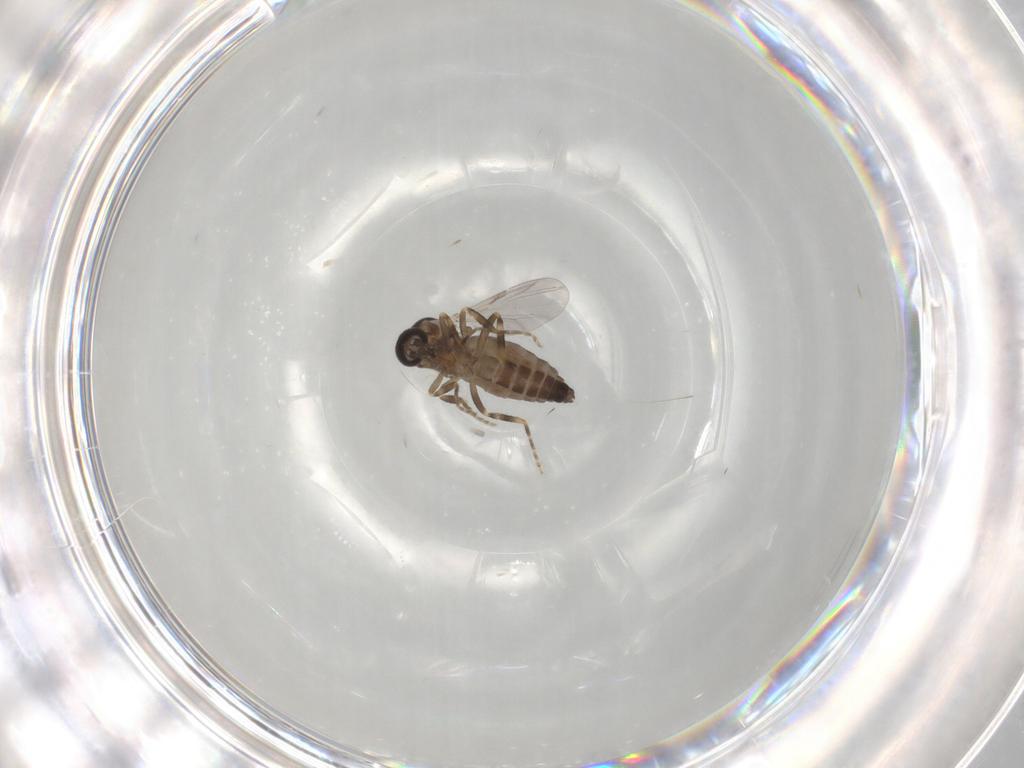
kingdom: Animalia
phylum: Arthropoda
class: Insecta
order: Diptera
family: Ceratopogonidae
